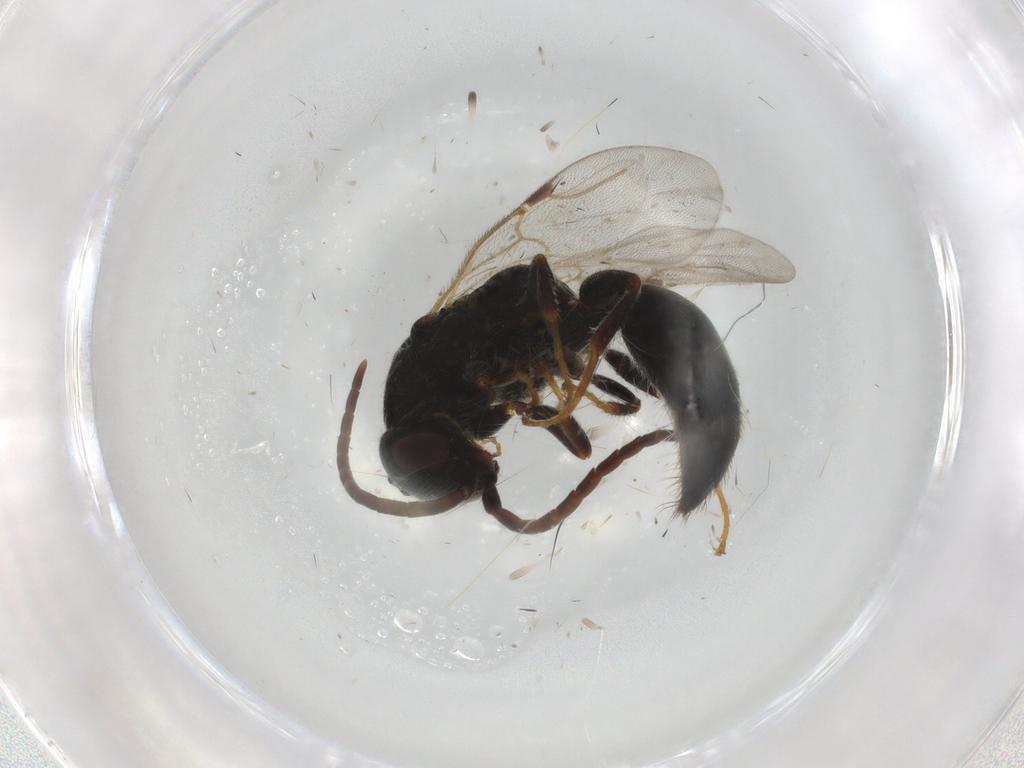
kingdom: Animalia
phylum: Arthropoda
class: Insecta
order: Hymenoptera
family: Bethylidae
